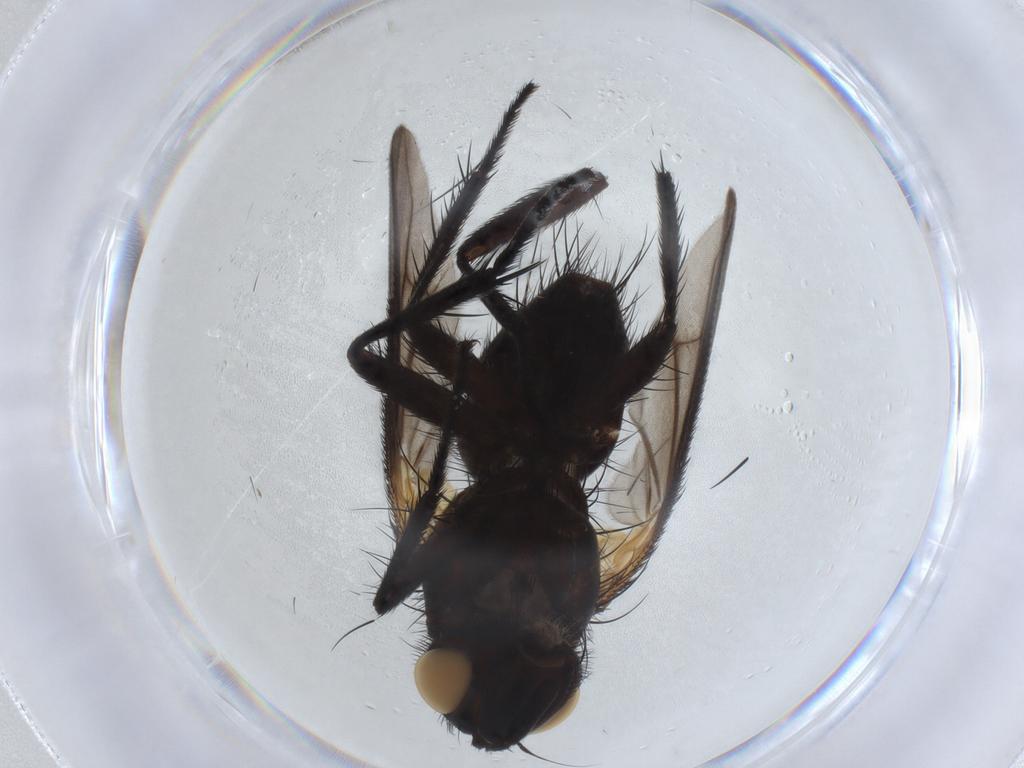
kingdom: Animalia
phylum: Arthropoda
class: Insecta
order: Diptera
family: Tachinidae
